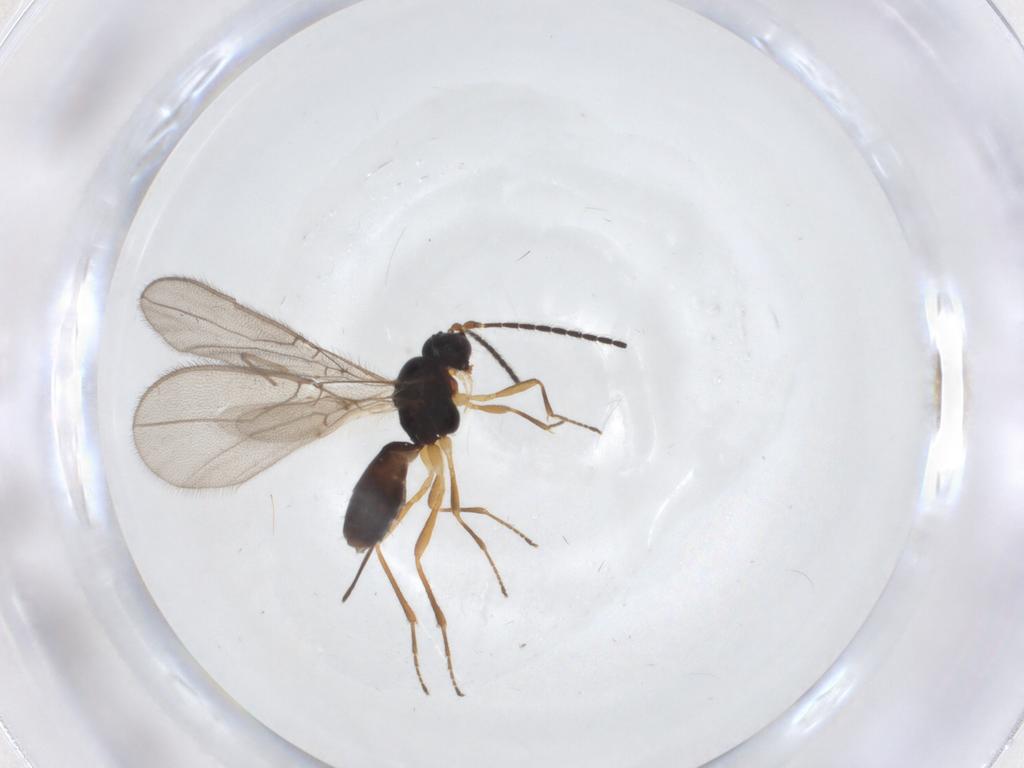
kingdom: Animalia
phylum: Arthropoda
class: Insecta
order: Hymenoptera
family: Braconidae
